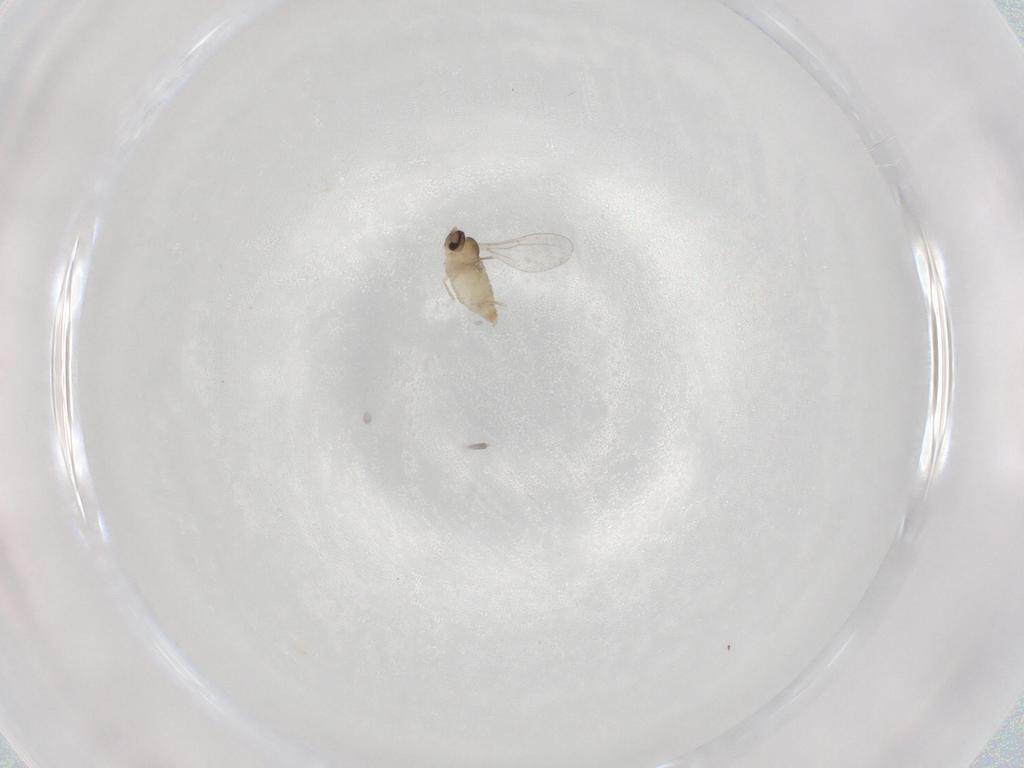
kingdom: Animalia
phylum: Arthropoda
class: Insecta
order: Diptera
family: Cecidomyiidae
